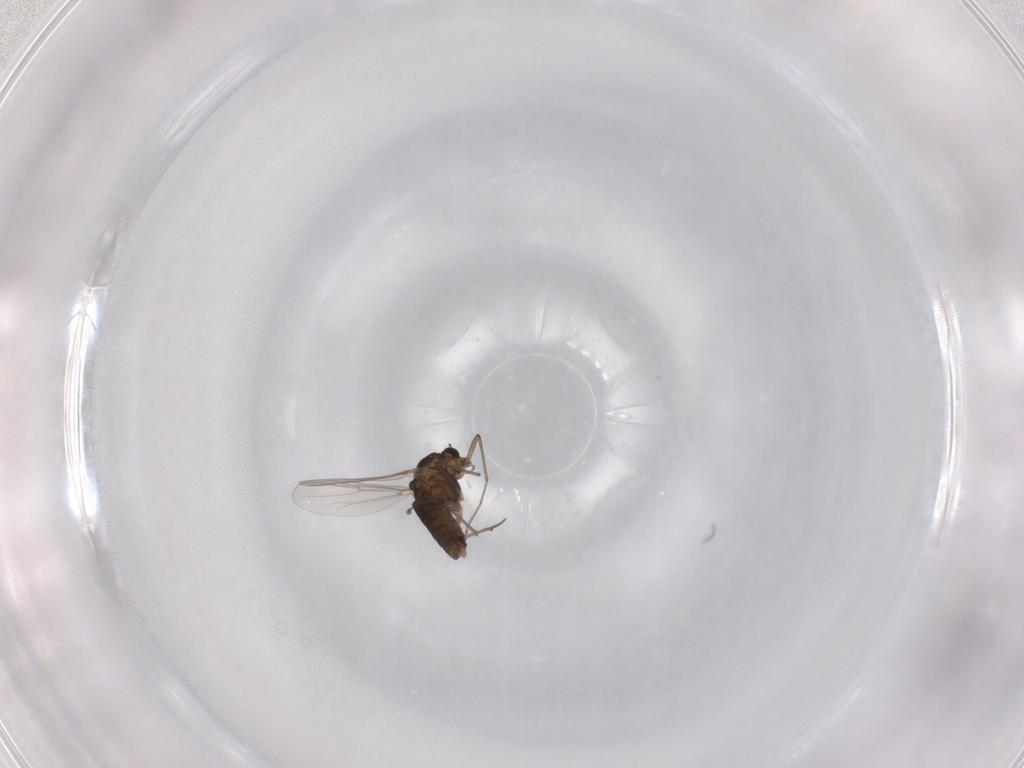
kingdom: Animalia
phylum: Arthropoda
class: Insecta
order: Diptera
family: Chironomidae
